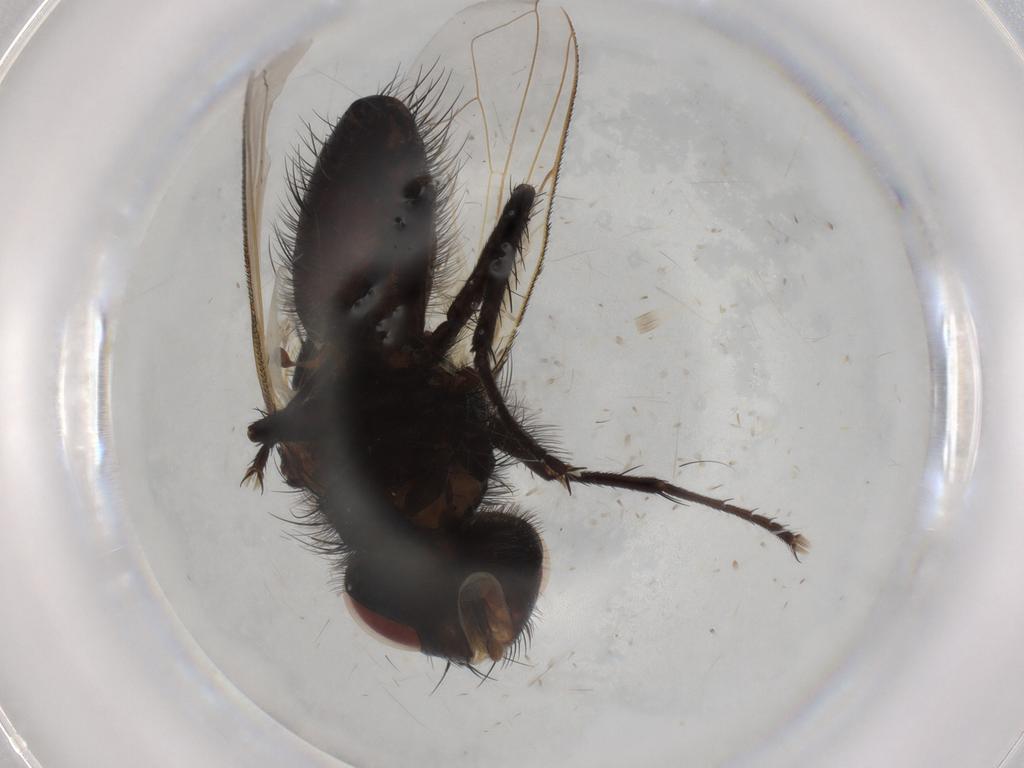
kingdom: Animalia
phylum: Arthropoda
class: Insecta
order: Diptera
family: Tachinidae
